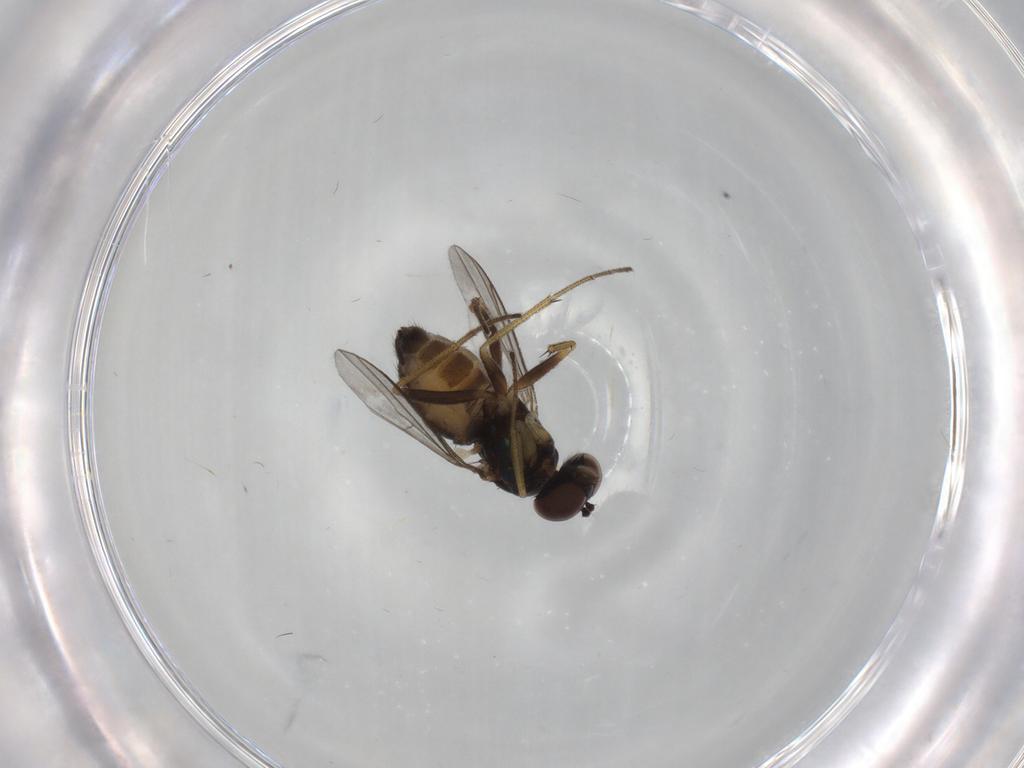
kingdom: Animalia
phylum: Arthropoda
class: Insecta
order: Diptera
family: Dolichopodidae
